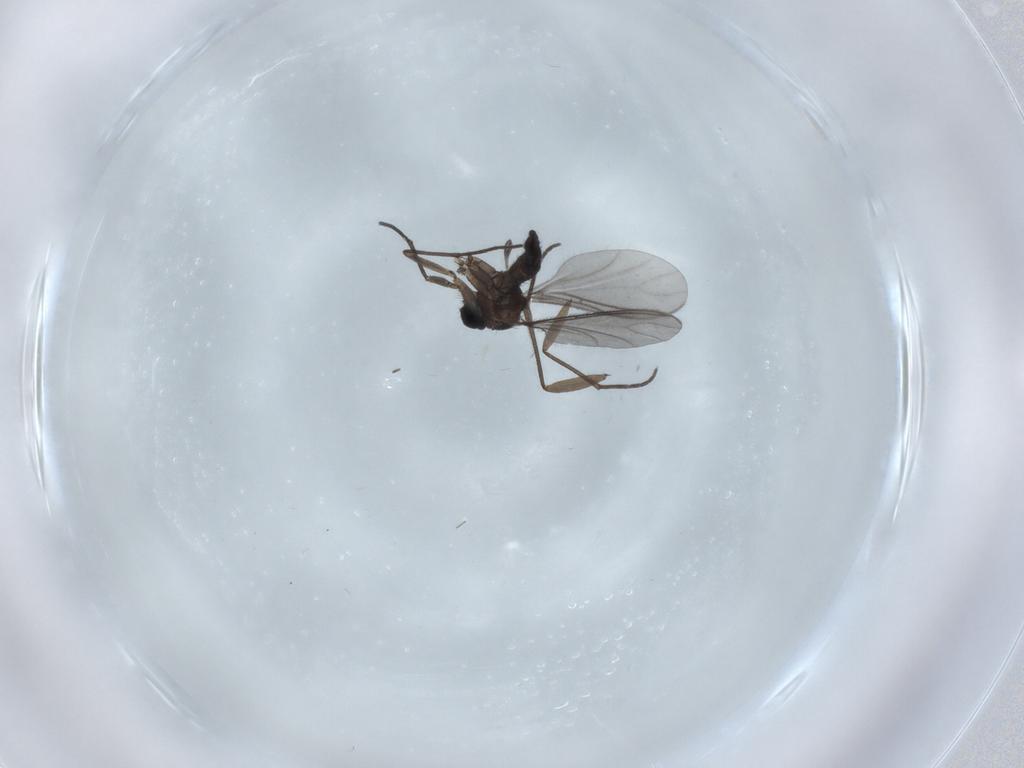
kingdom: Animalia
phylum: Arthropoda
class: Insecta
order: Diptera
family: Sciaridae
